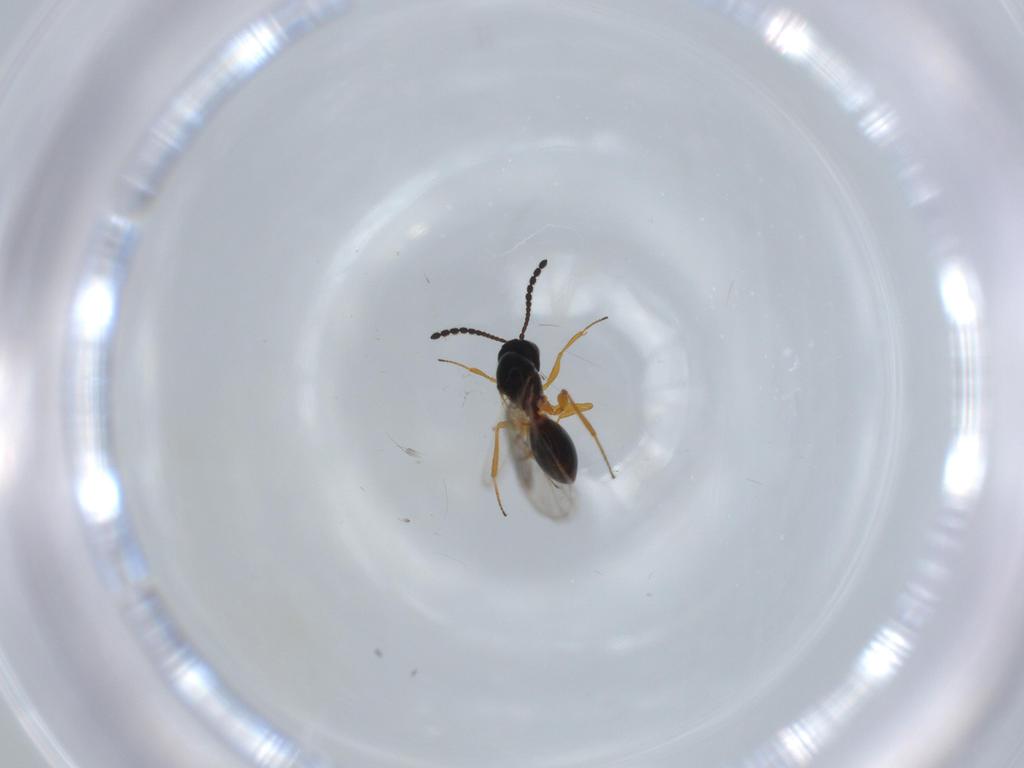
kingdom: Animalia
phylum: Arthropoda
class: Insecta
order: Hymenoptera
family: Figitidae
